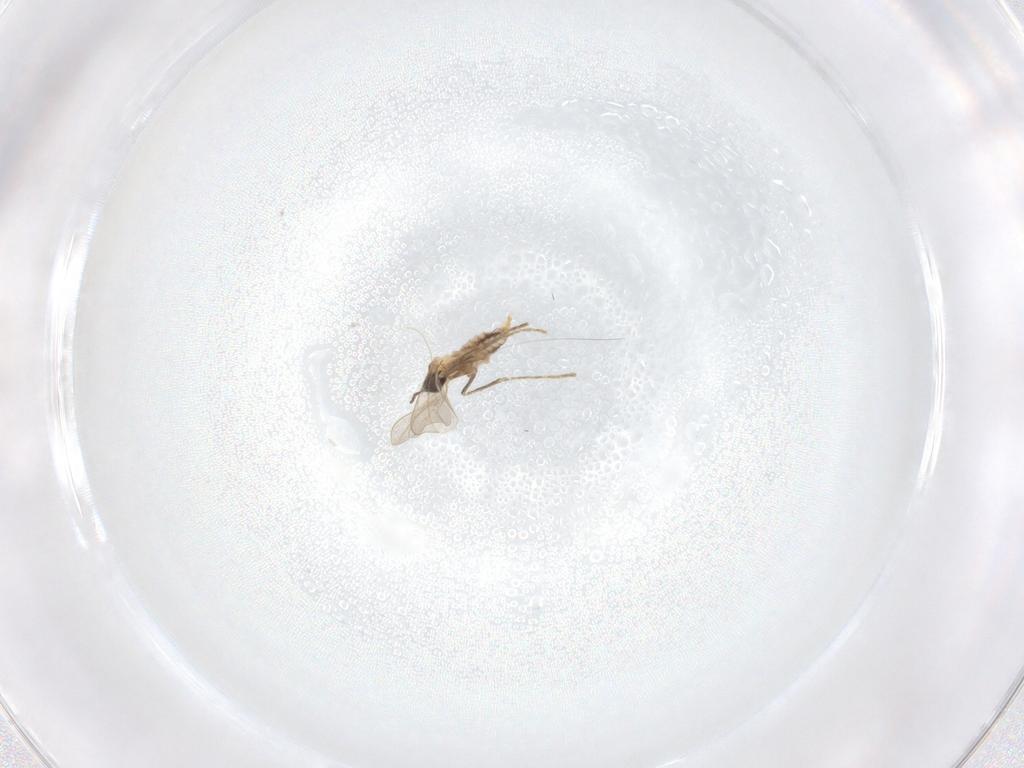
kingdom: Animalia
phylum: Arthropoda
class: Insecta
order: Diptera
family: Cecidomyiidae
